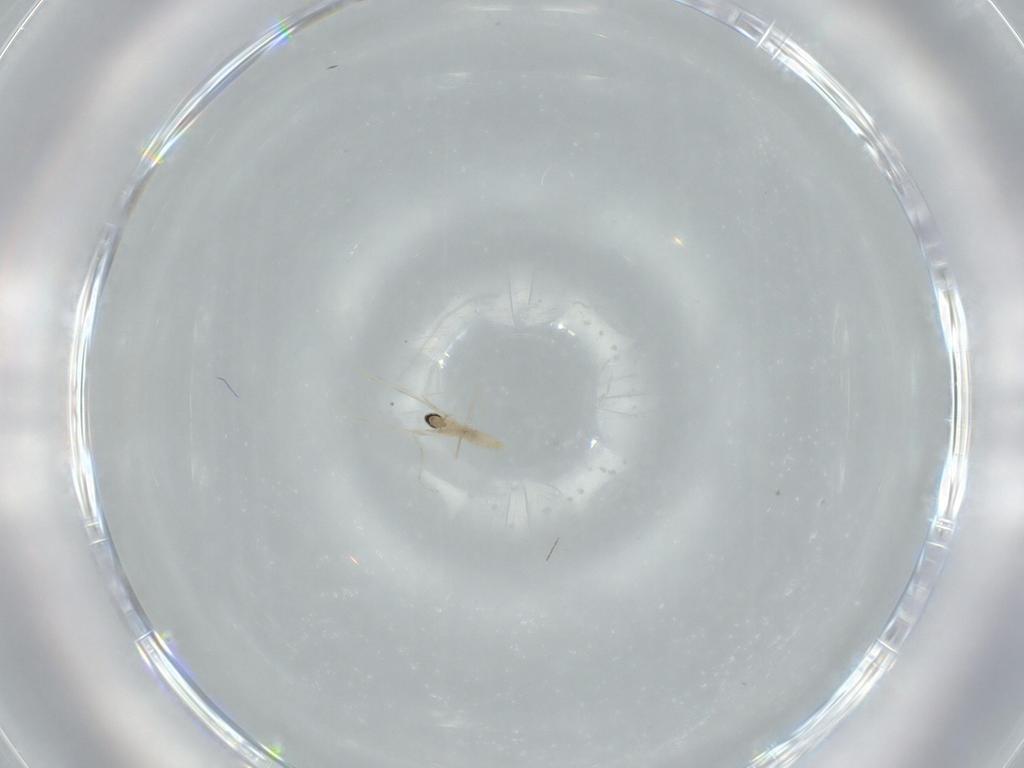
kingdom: Animalia
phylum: Arthropoda
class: Insecta
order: Diptera
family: Cecidomyiidae
